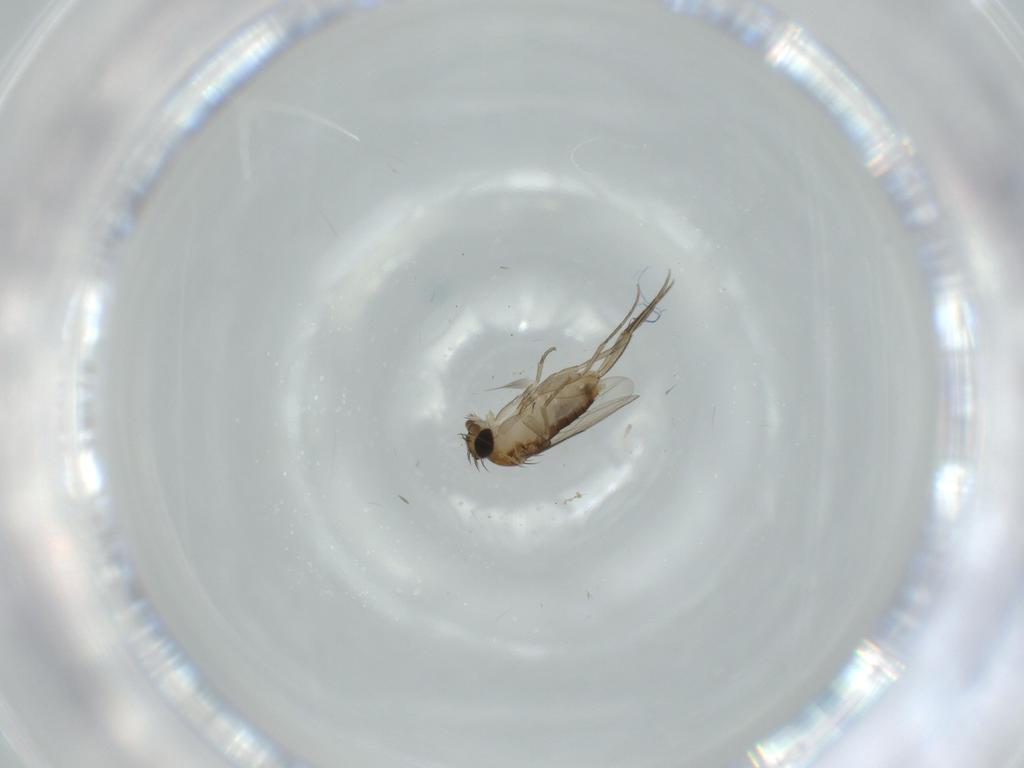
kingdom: Animalia
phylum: Arthropoda
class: Insecta
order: Diptera
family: Phoridae
